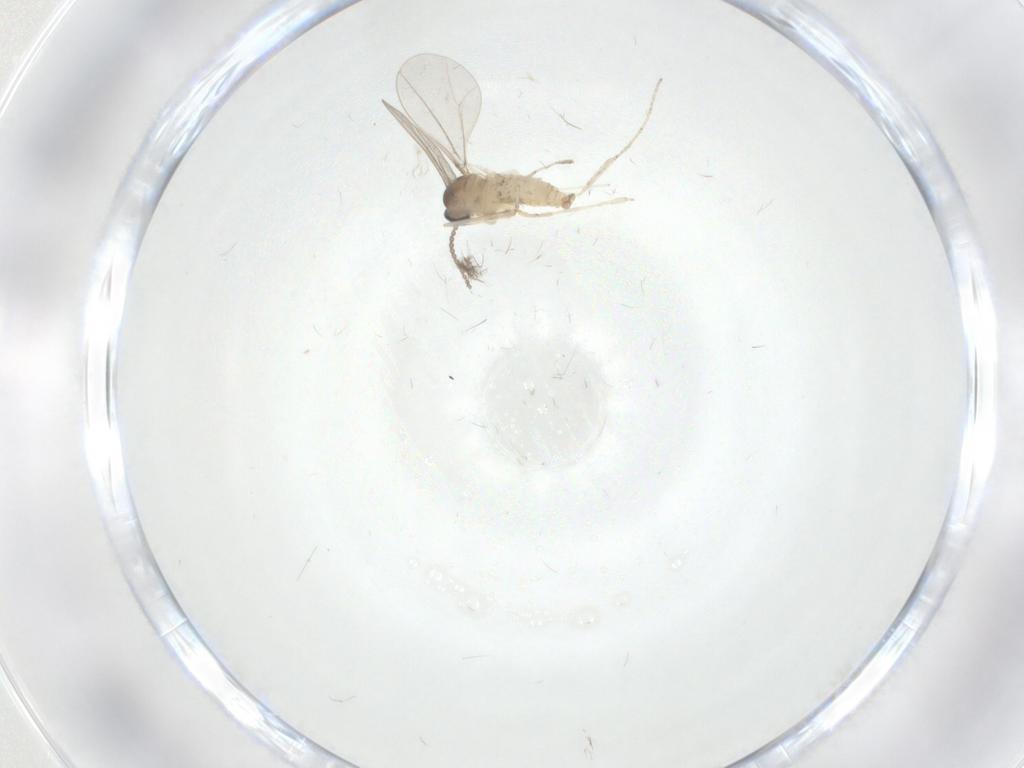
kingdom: Animalia
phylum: Arthropoda
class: Insecta
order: Diptera
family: Psychodidae
